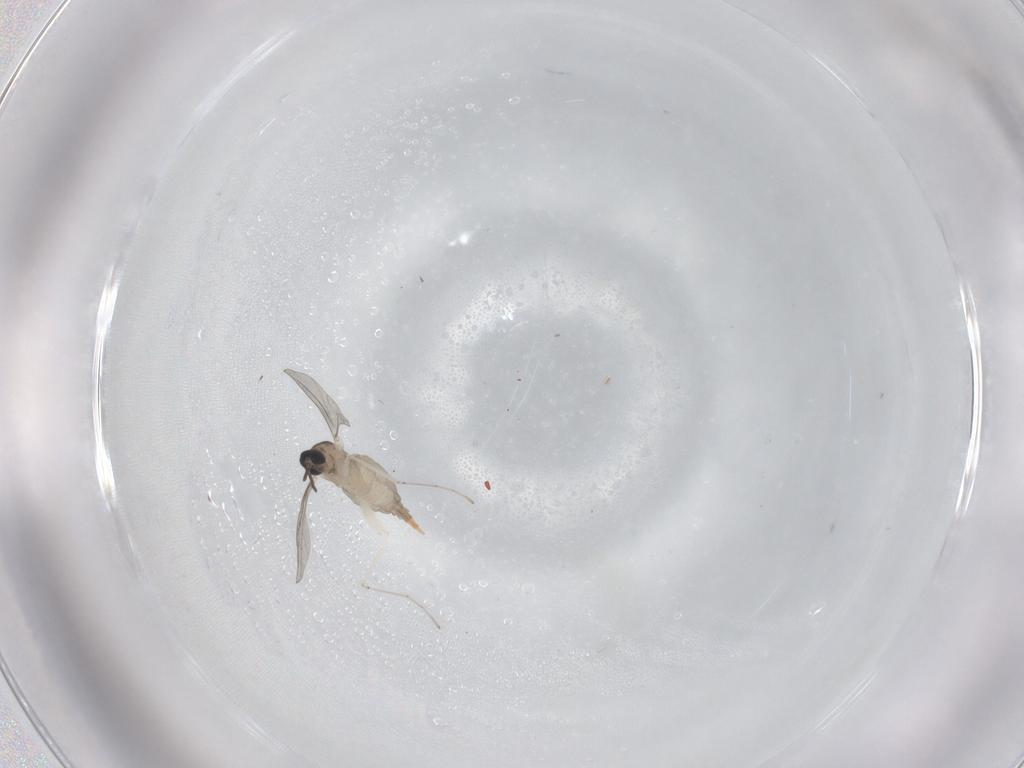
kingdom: Animalia
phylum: Arthropoda
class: Insecta
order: Diptera
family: Cecidomyiidae
